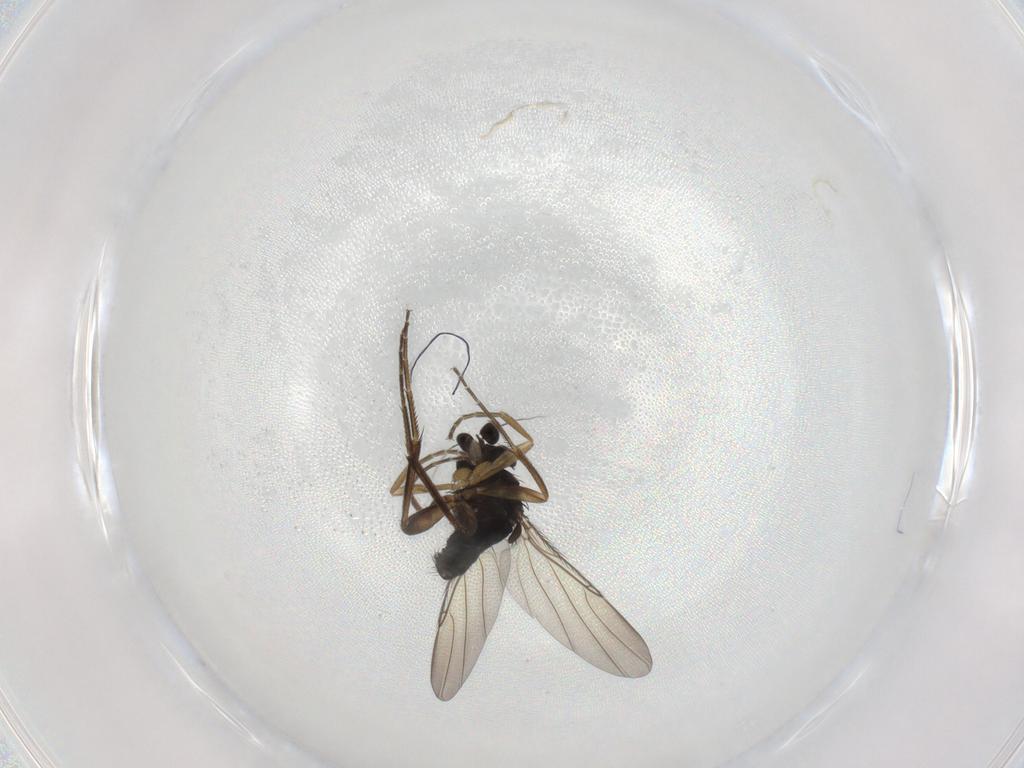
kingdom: Animalia
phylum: Arthropoda
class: Insecta
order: Diptera
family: Phoridae
